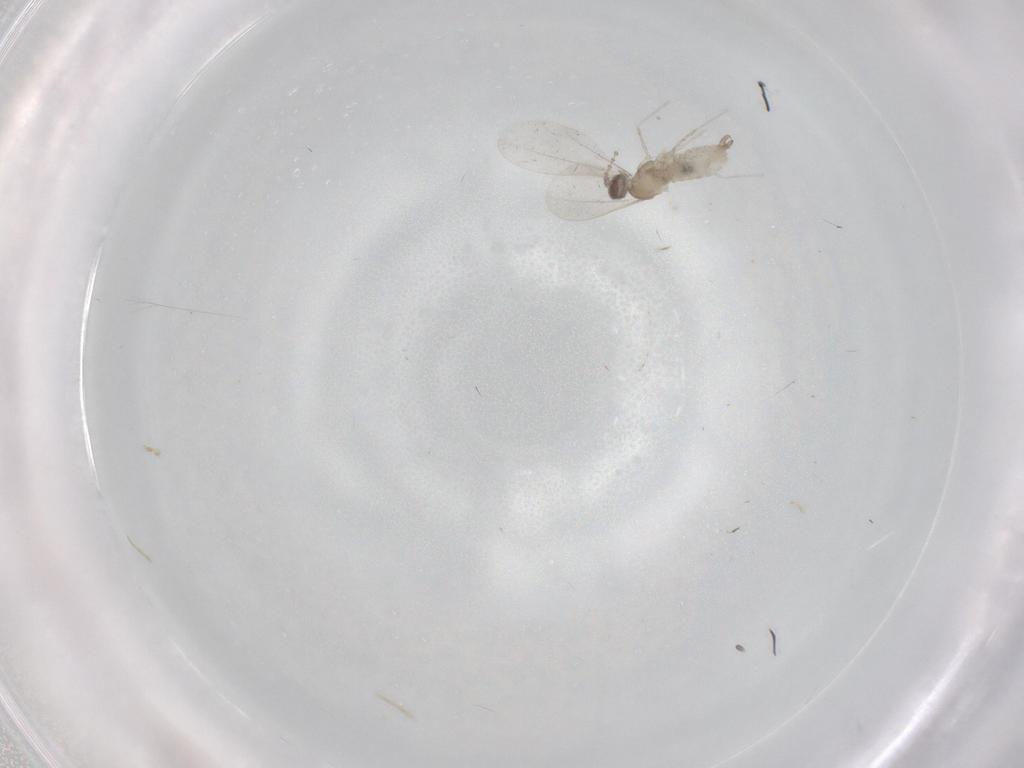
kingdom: Animalia
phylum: Arthropoda
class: Insecta
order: Diptera
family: Cecidomyiidae
